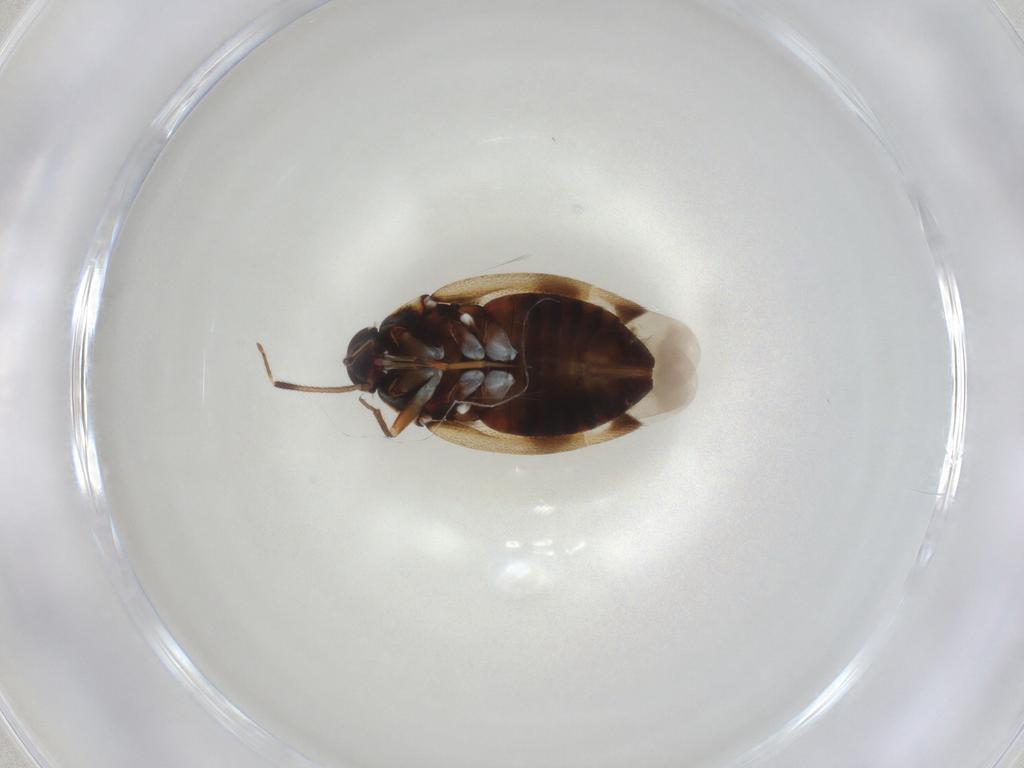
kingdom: Animalia
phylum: Arthropoda
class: Insecta
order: Hemiptera
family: Miridae
